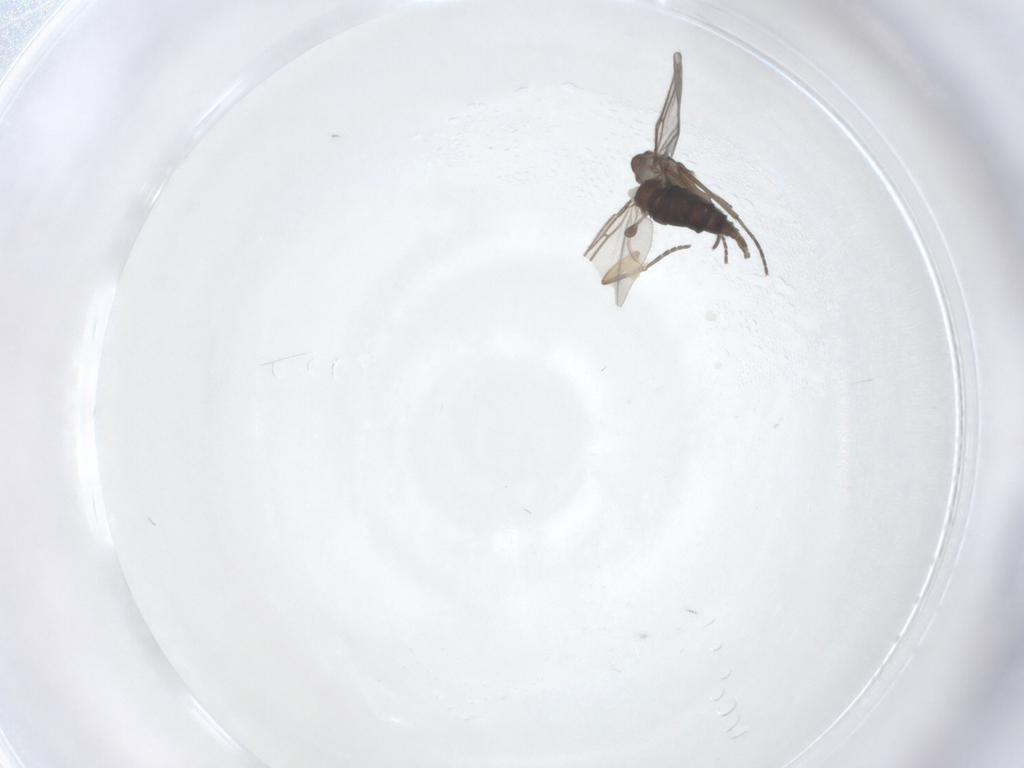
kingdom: Animalia
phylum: Arthropoda
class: Insecta
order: Diptera
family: Sciaridae
